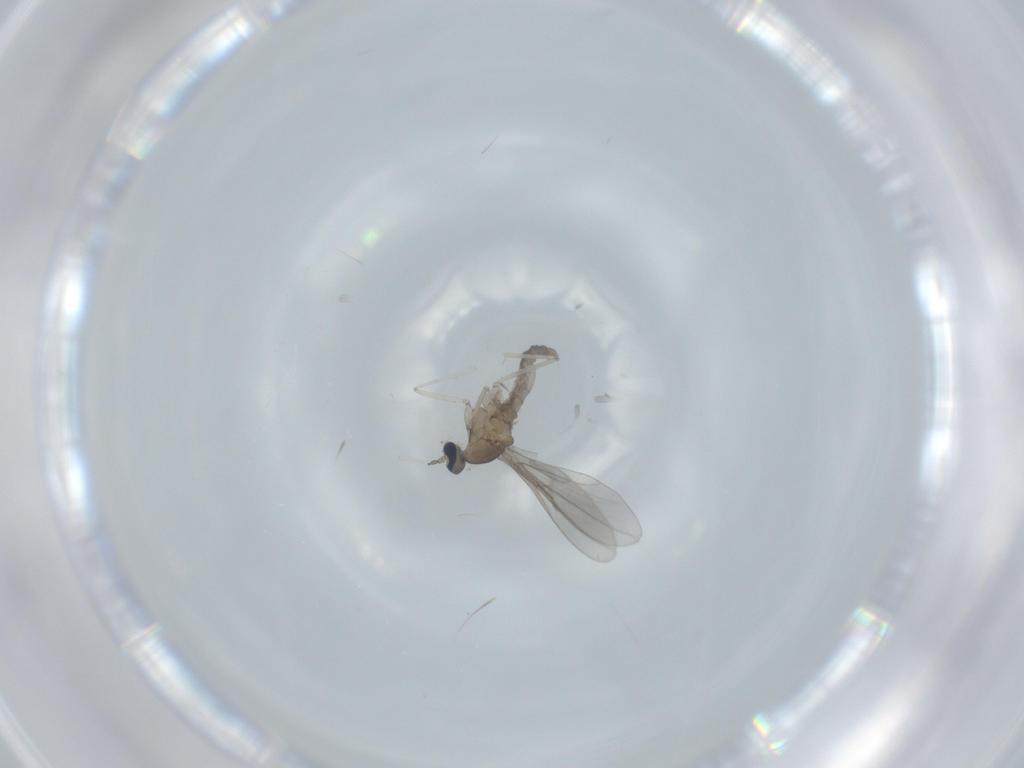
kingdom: Animalia
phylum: Arthropoda
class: Insecta
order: Diptera
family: Cecidomyiidae
